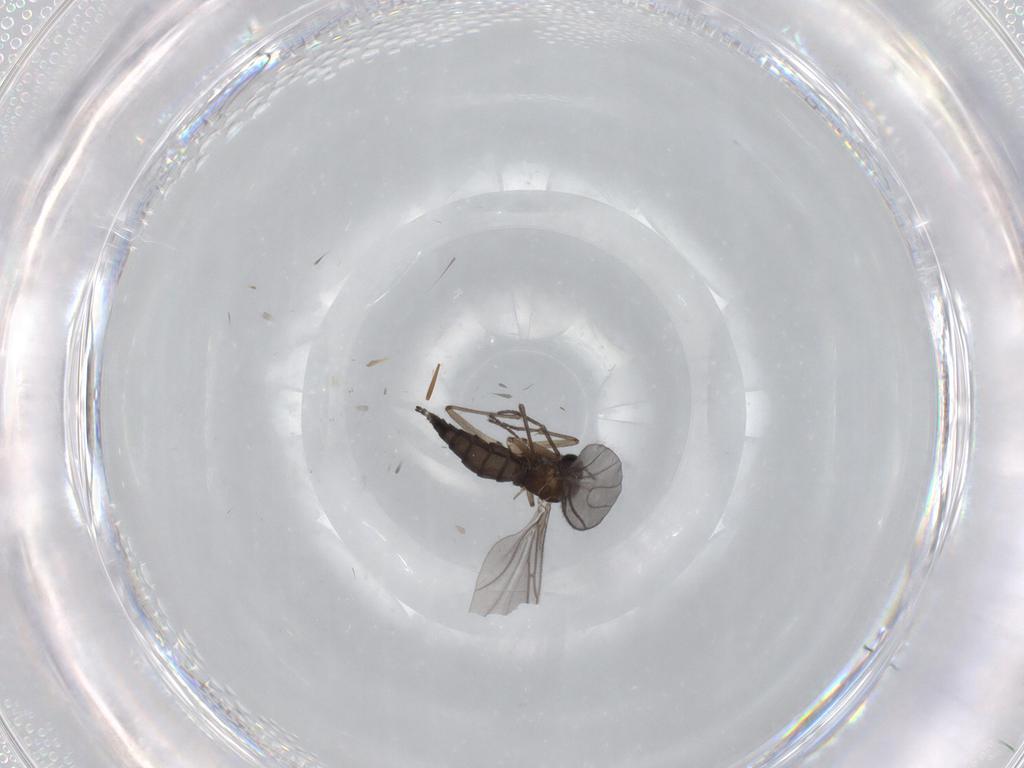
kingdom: Animalia
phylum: Arthropoda
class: Insecta
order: Diptera
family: Sciaridae
